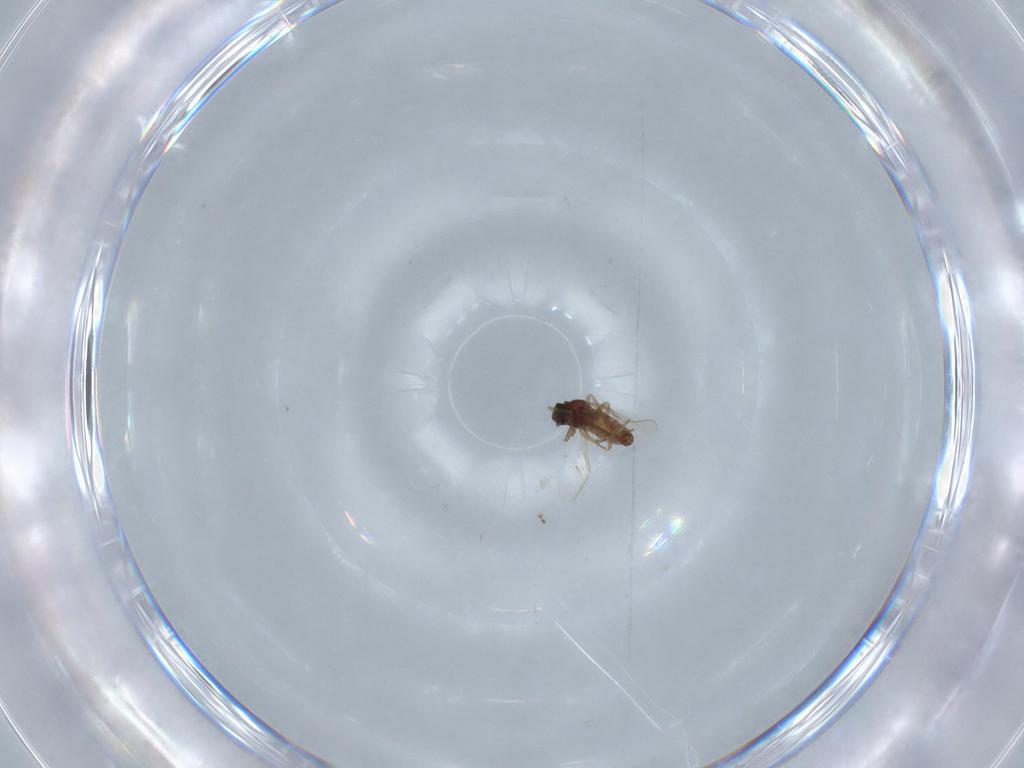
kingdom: Animalia
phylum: Arthropoda
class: Insecta
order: Diptera
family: Ceratopogonidae
